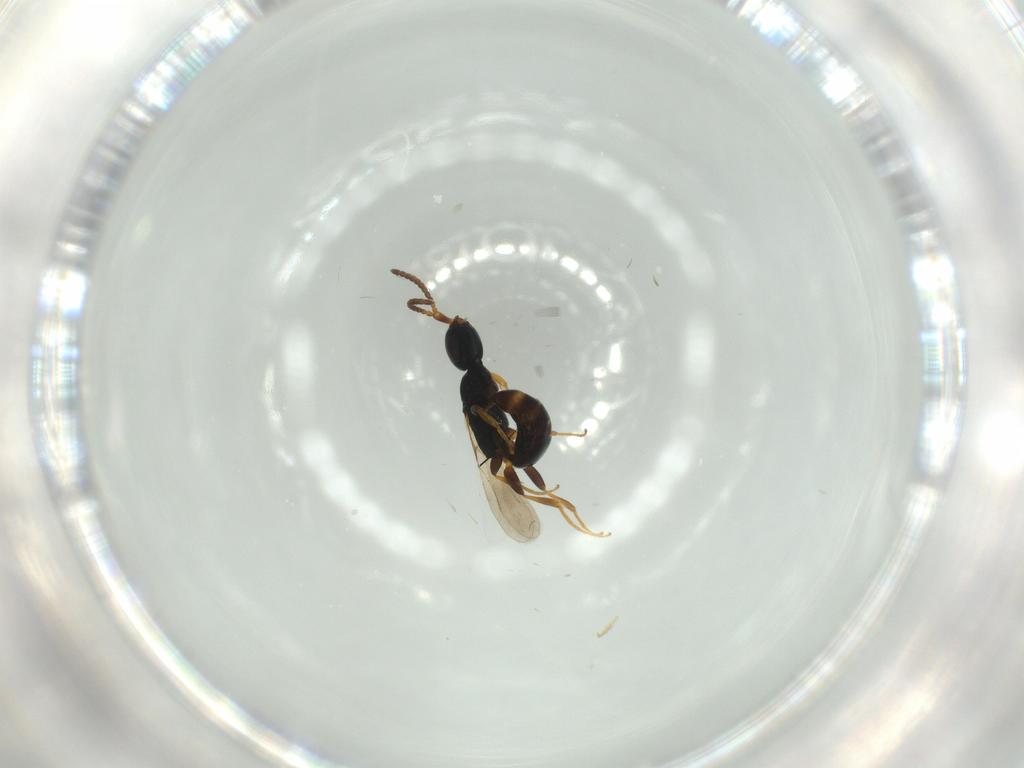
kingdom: Animalia
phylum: Arthropoda
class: Insecta
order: Hymenoptera
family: Bethylidae
